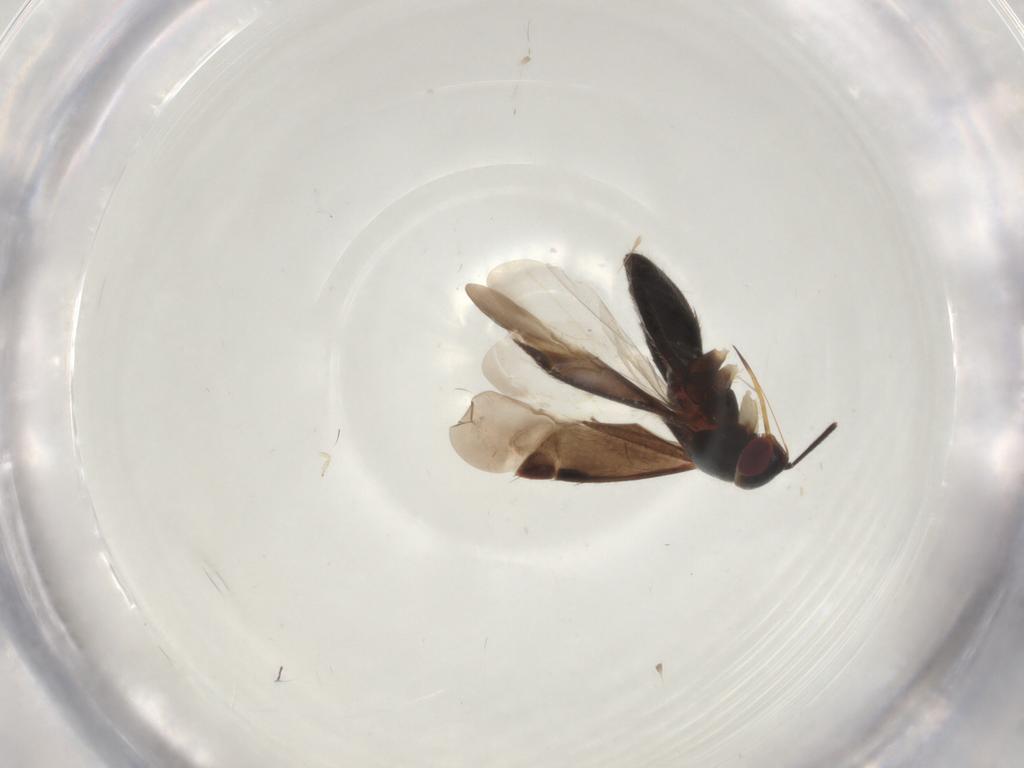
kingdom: Animalia
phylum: Arthropoda
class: Insecta
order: Hemiptera
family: Miridae
